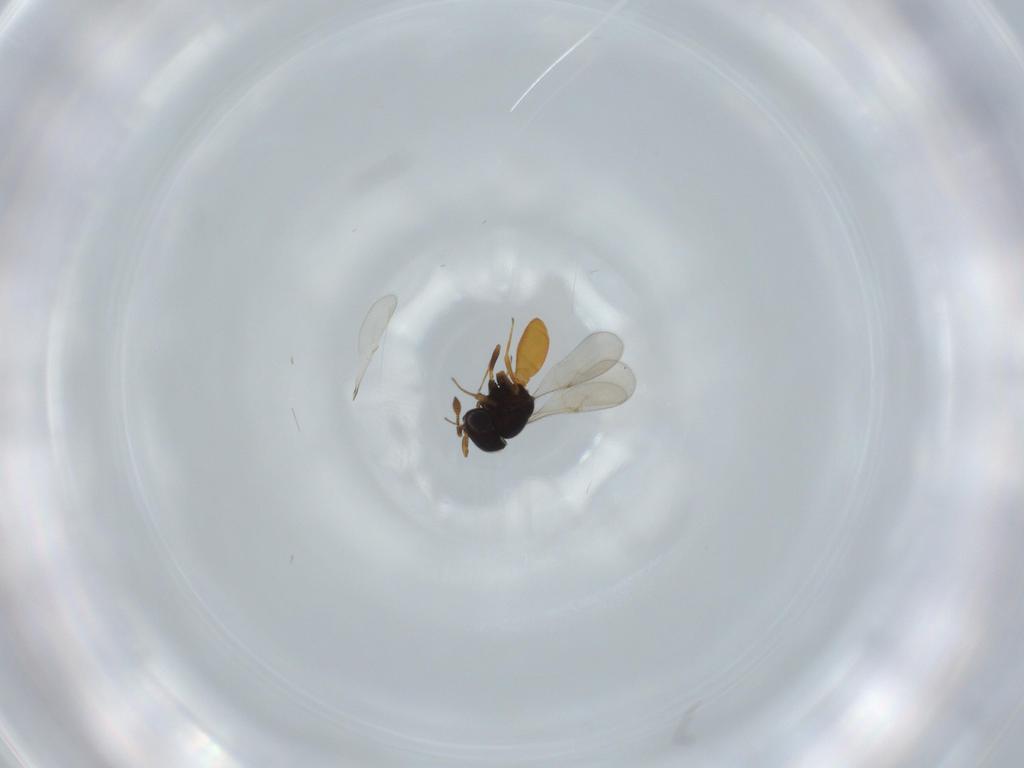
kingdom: Animalia
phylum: Arthropoda
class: Insecta
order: Hymenoptera
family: Scelionidae
